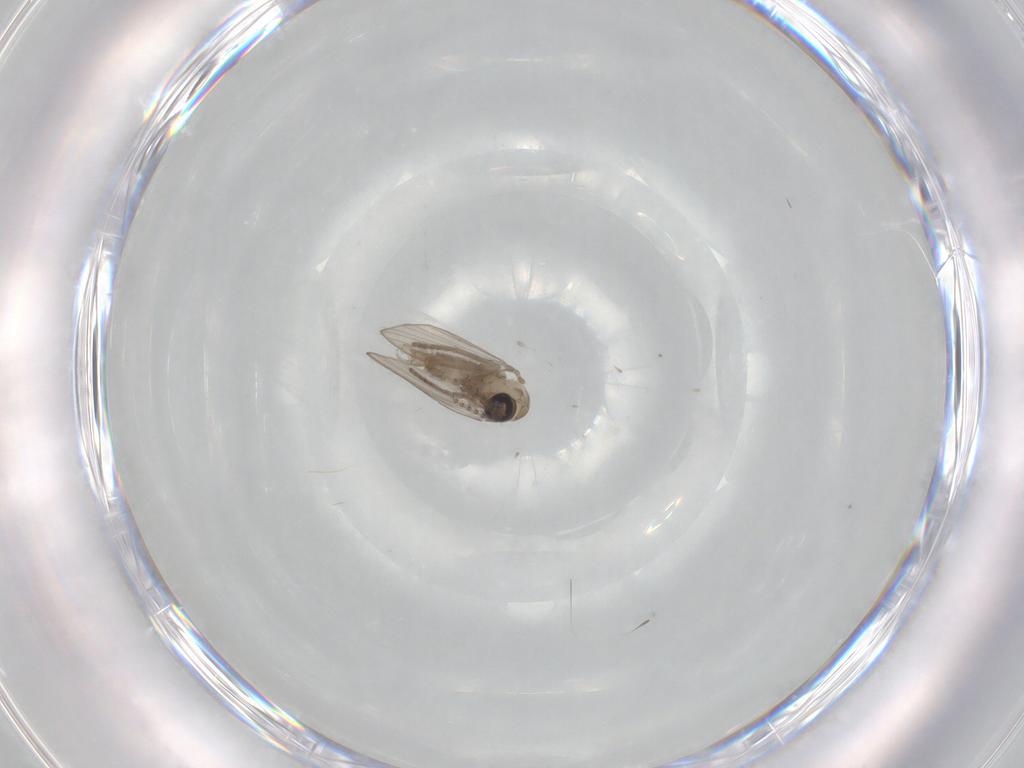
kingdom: Animalia
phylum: Arthropoda
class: Insecta
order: Diptera
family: Psychodidae
